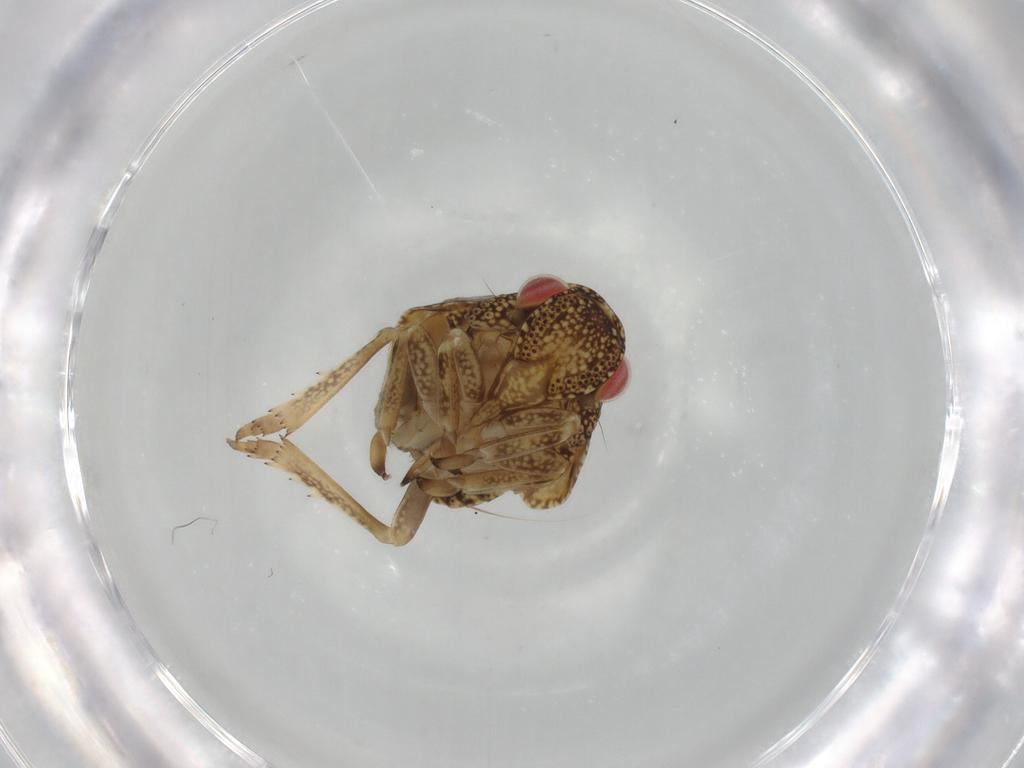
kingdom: Animalia
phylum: Arthropoda
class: Insecta
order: Hemiptera
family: Acanaloniidae
